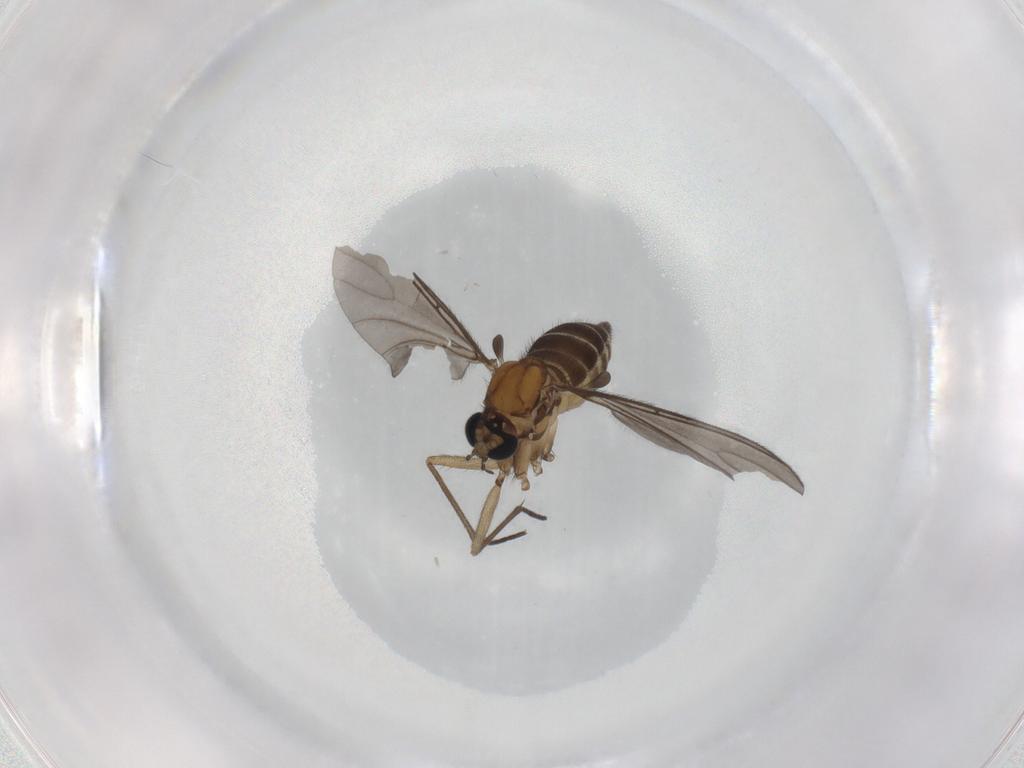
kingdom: Animalia
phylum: Arthropoda
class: Insecta
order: Diptera
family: Sciaridae
